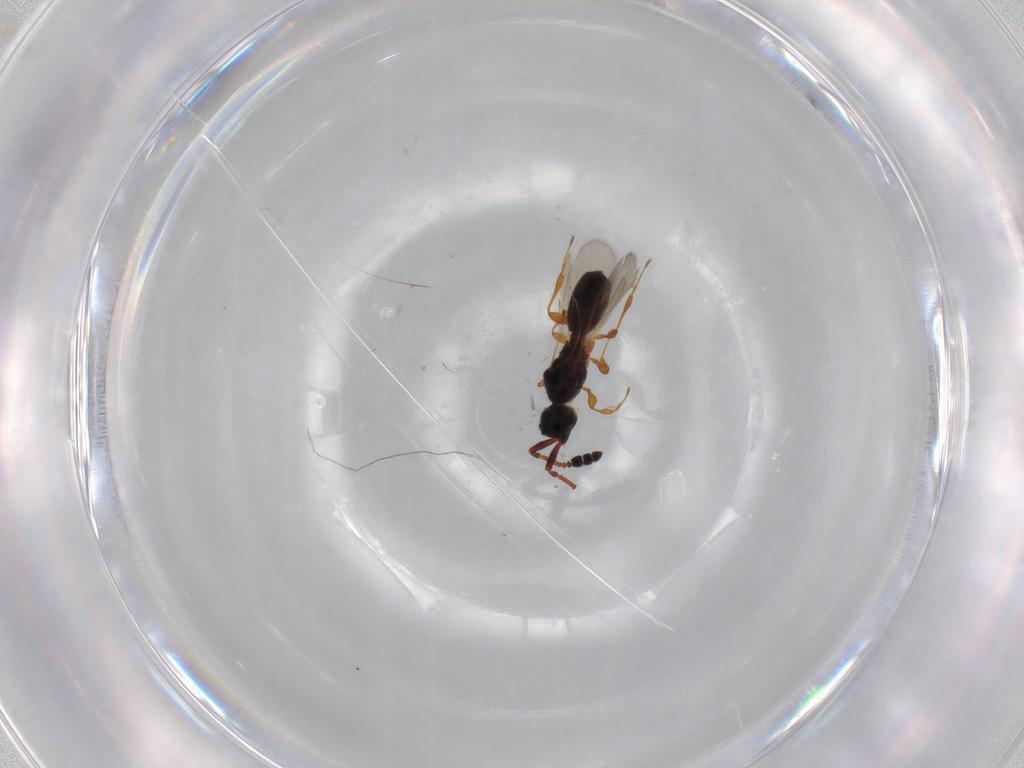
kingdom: Animalia
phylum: Arthropoda
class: Insecta
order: Hymenoptera
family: Diapriidae
